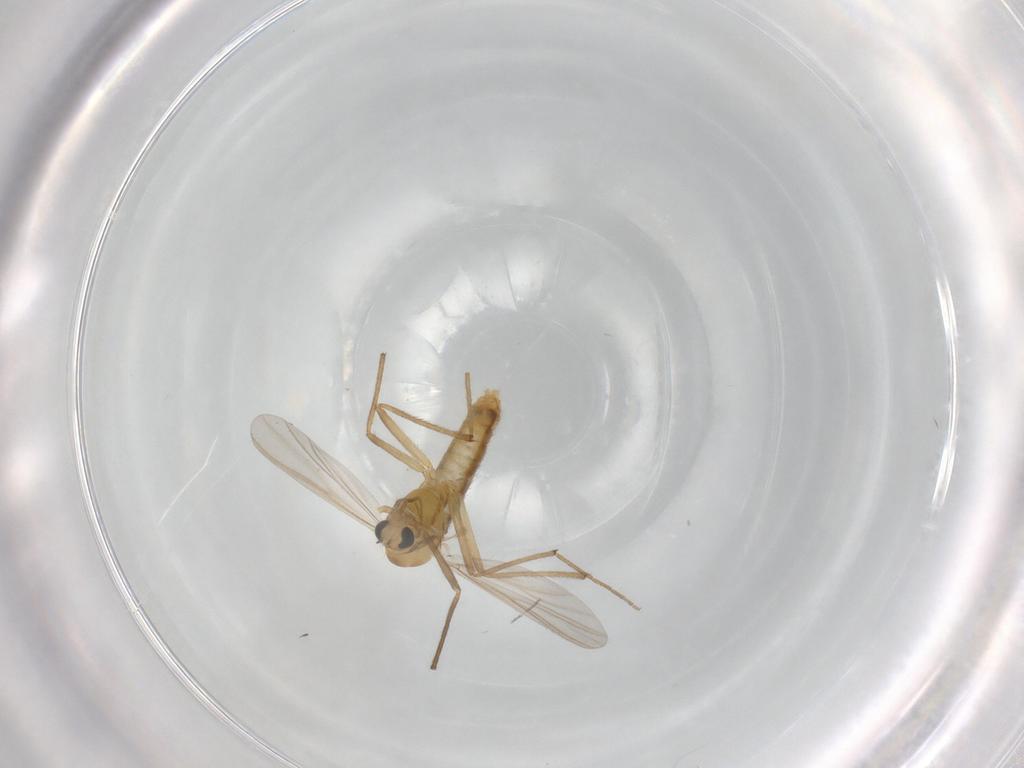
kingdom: Animalia
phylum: Arthropoda
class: Insecta
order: Diptera
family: Chironomidae
